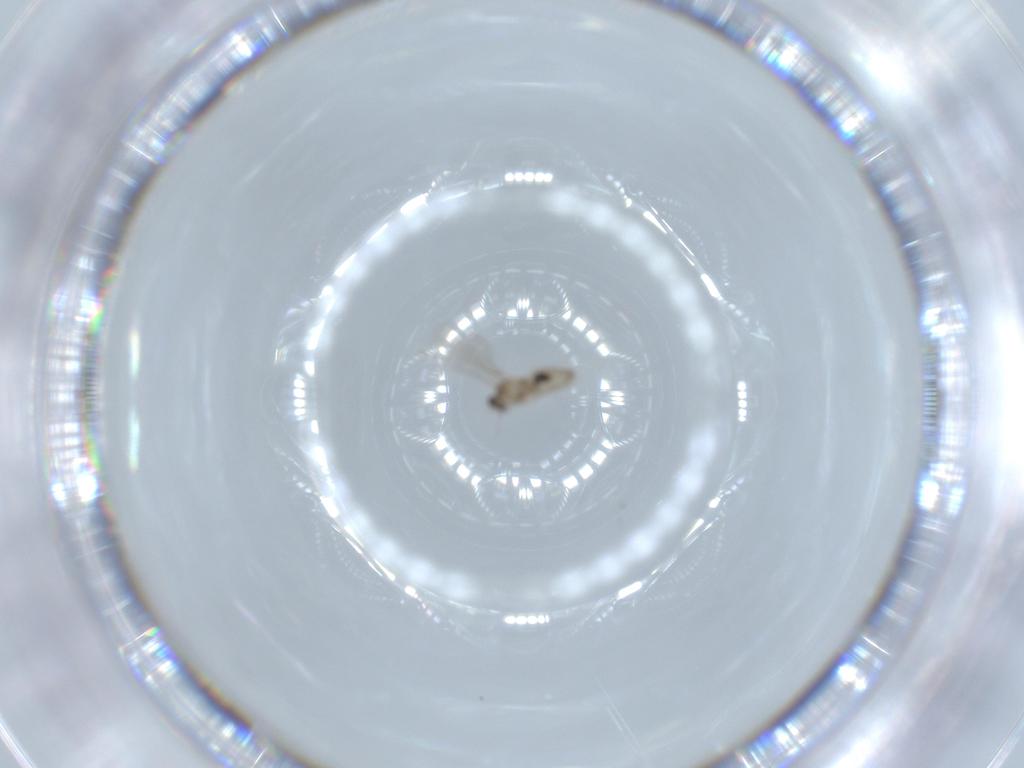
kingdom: Animalia
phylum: Arthropoda
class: Insecta
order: Diptera
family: Cecidomyiidae
